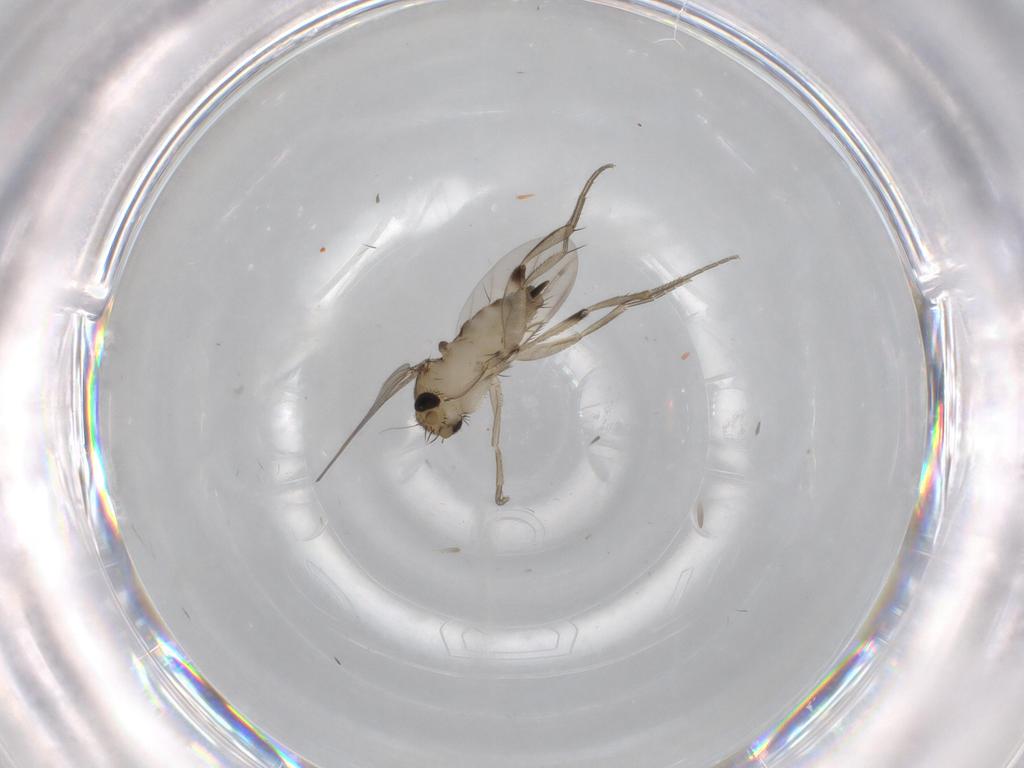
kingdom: Animalia
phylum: Arthropoda
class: Insecta
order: Diptera
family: Phoridae
